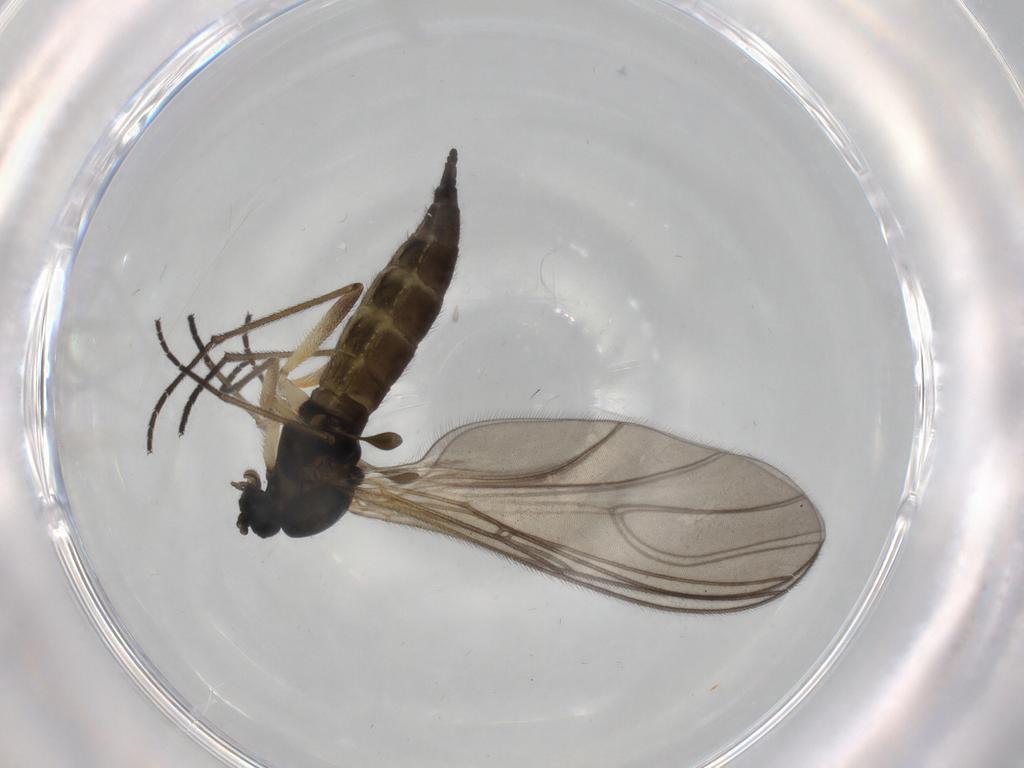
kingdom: Animalia
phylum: Arthropoda
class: Insecta
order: Diptera
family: Sciaridae
